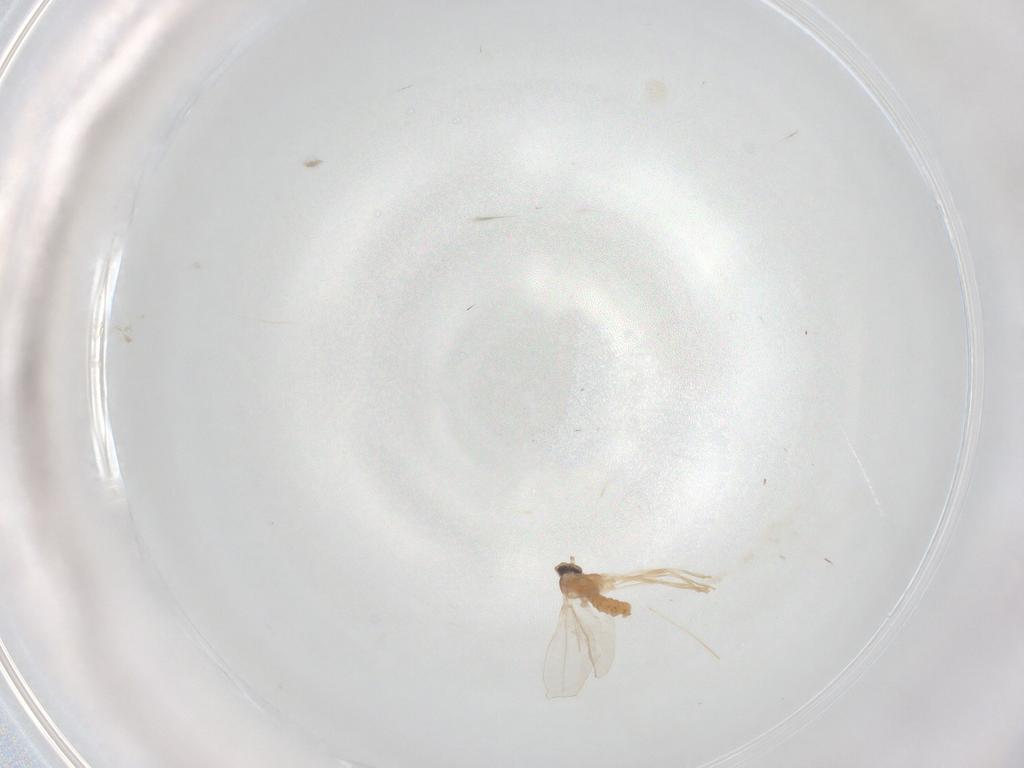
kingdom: Animalia
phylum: Arthropoda
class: Insecta
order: Diptera
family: Cecidomyiidae
